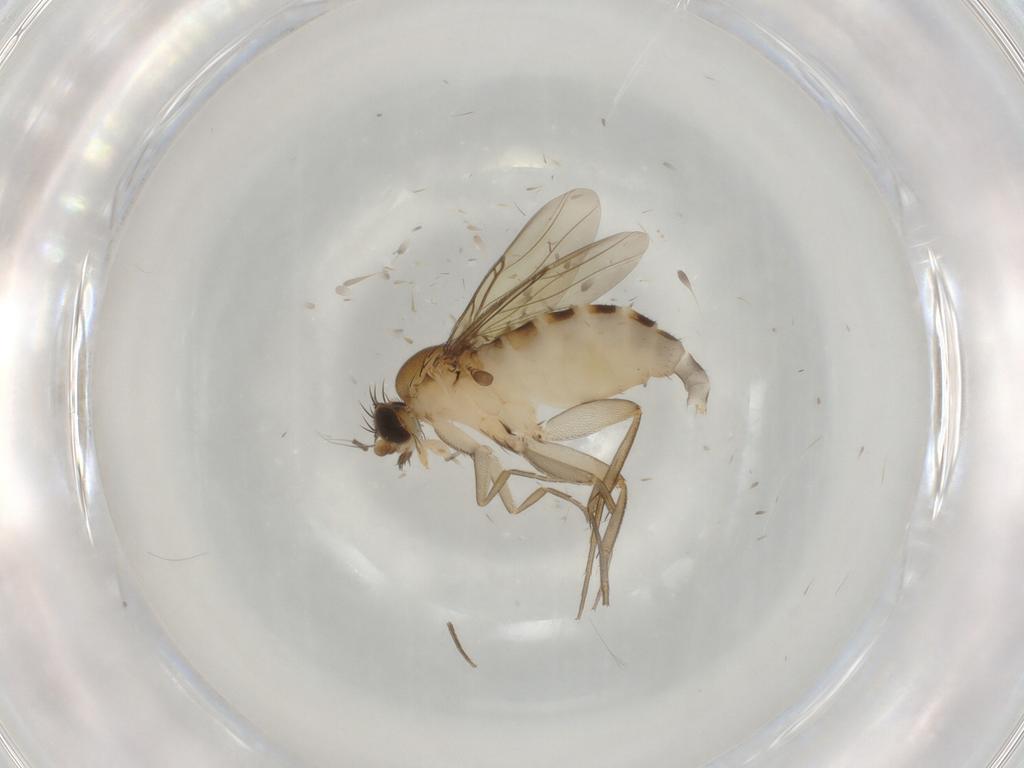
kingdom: Animalia
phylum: Arthropoda
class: Insecta
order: Diptera
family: Phoridae
